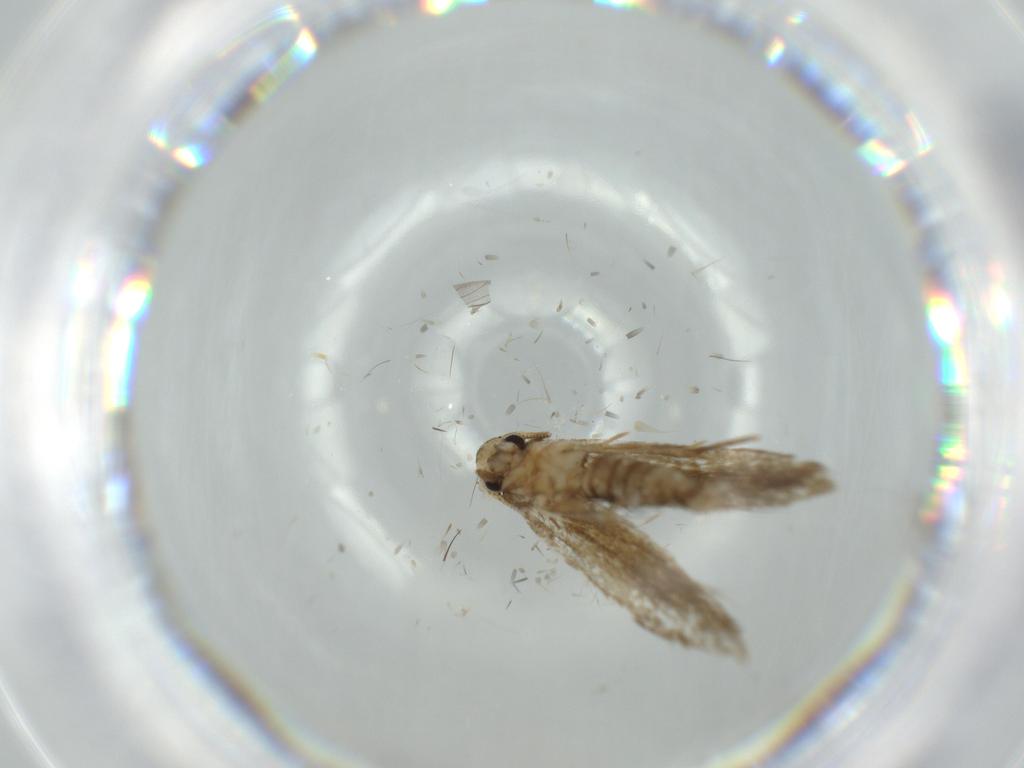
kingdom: Animalia
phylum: Arthropoda
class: Insecta
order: Lepidoptera
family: Tineidae
